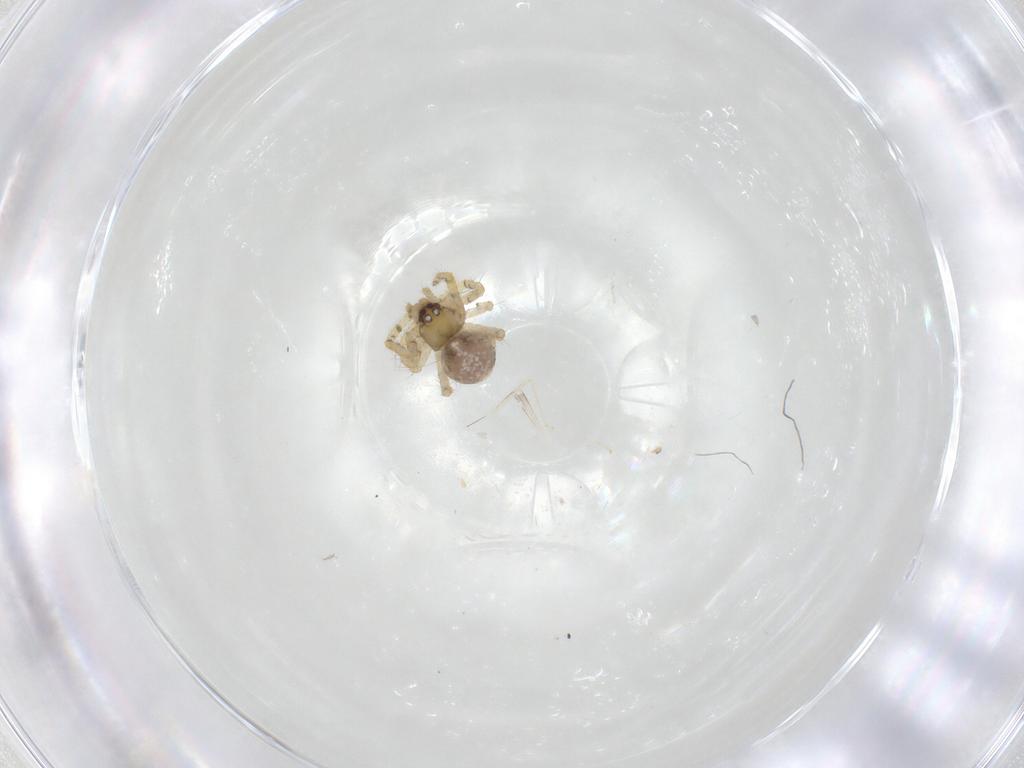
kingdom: Animalia
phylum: Arthropoda
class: Arachnida
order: Araneae
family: Theridiidae
